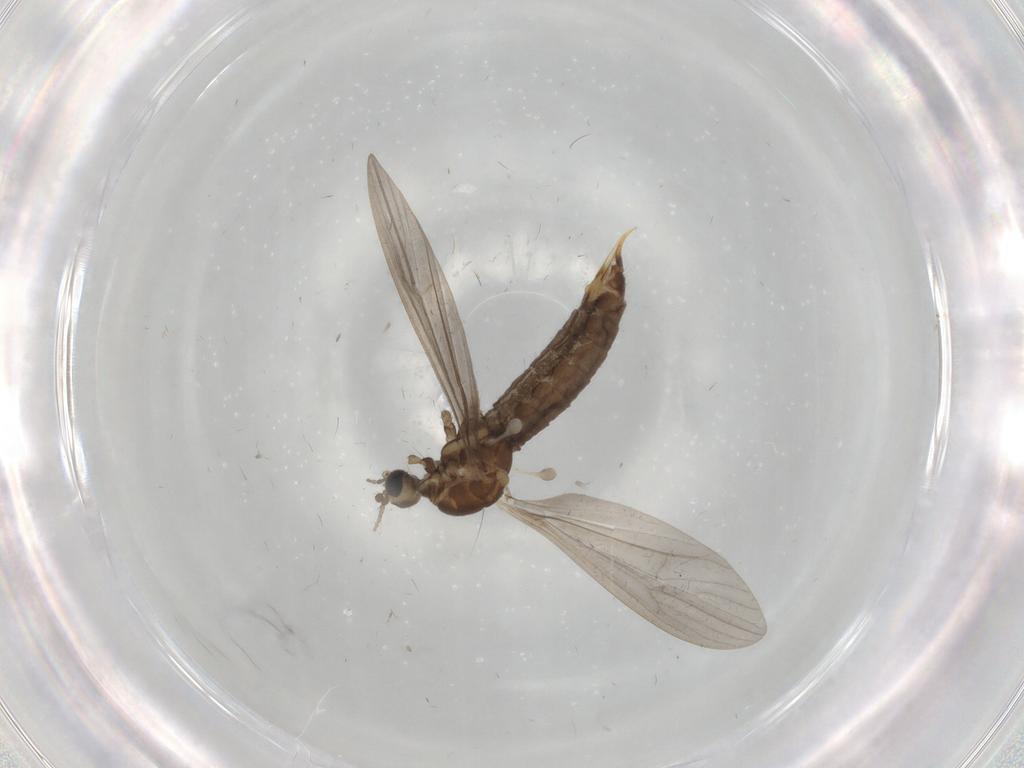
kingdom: Animalia
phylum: Arthropoda
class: Insecta
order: Diptera
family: Limoniidae
